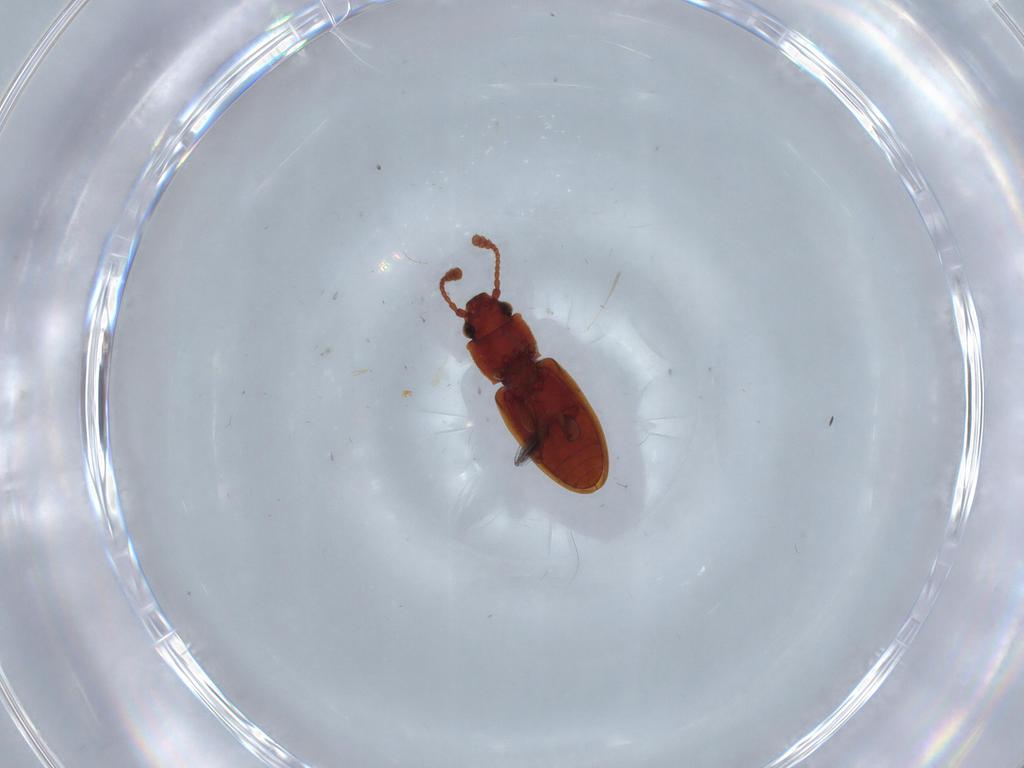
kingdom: Animalia
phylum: Arthropoda
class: Insecta
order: Coleoptera
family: Silvanidae
